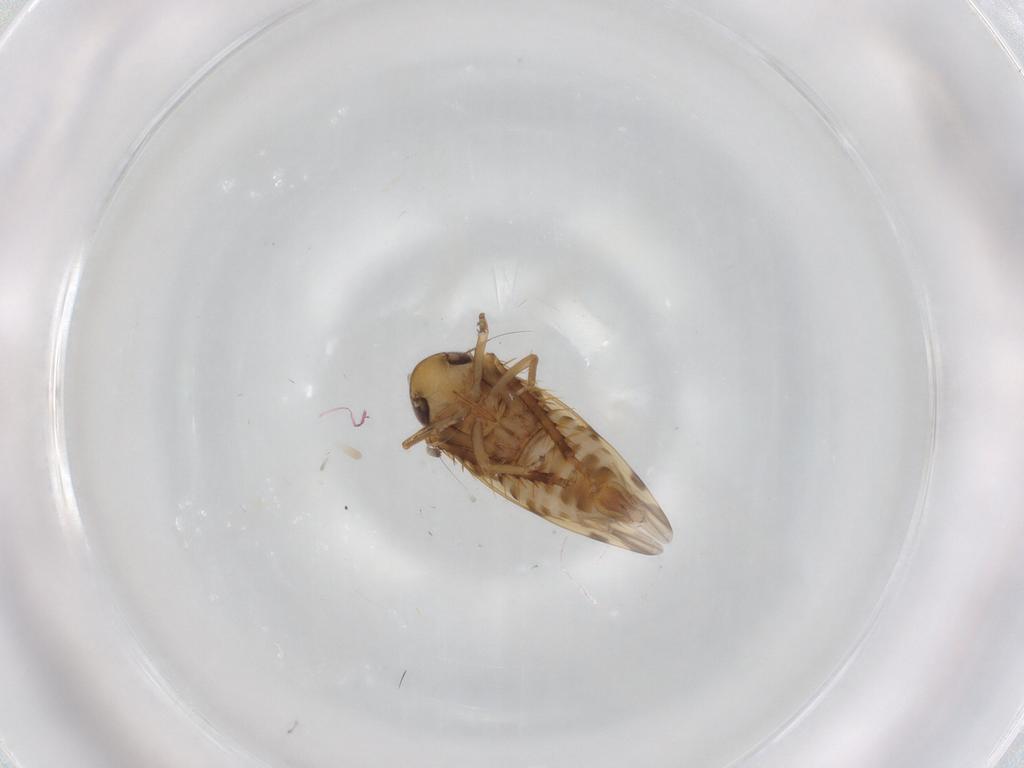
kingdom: Animalia
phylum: Arthropoda
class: Insecta
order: Hemiptera
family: Cicadellidae
